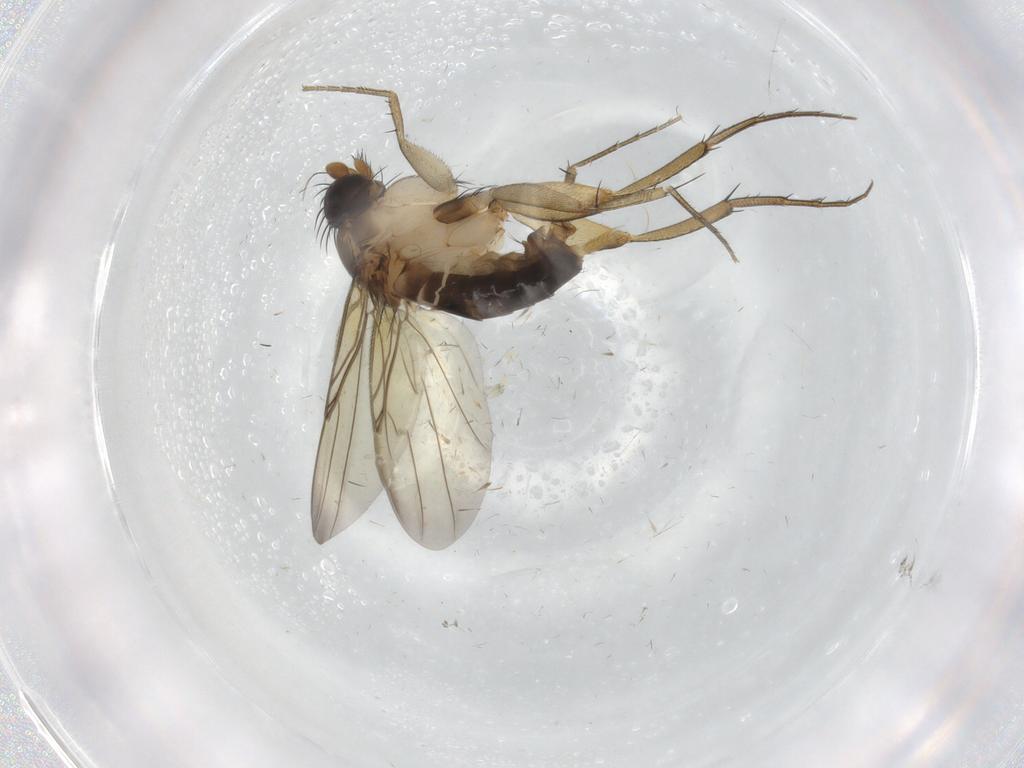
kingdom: Animalia
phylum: Arthropoda
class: Insecta
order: Diptera
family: Phoridae
